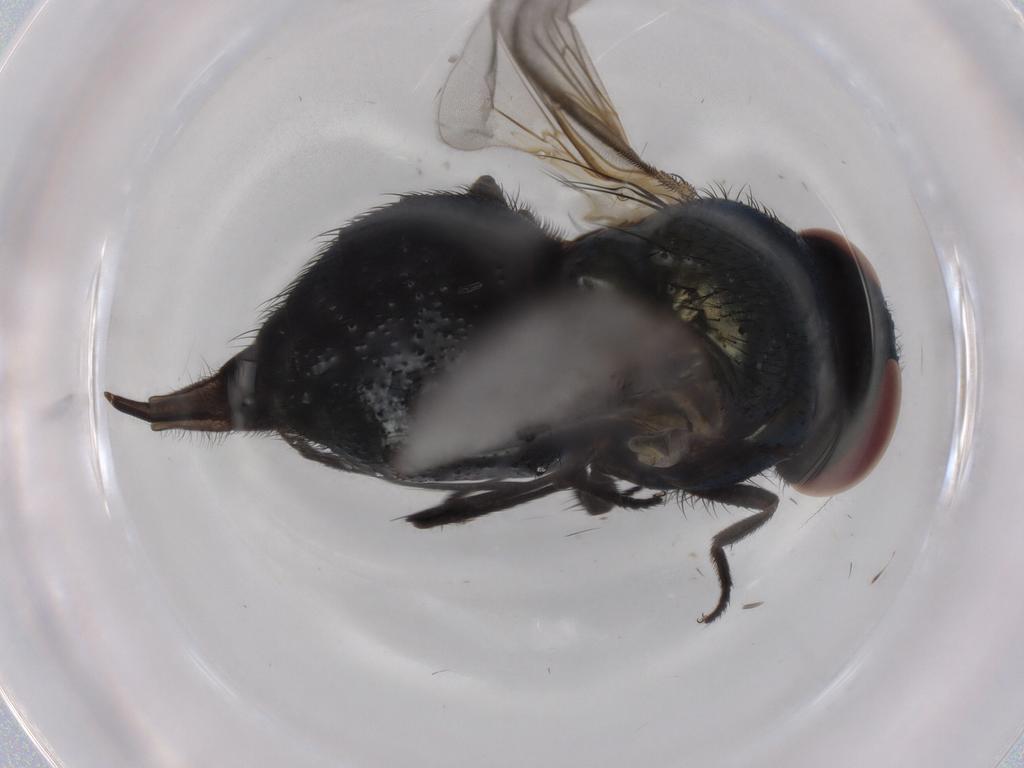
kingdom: Animalia
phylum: Arthropoda
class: Insecta
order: Diptera
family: Lonchaeidae
